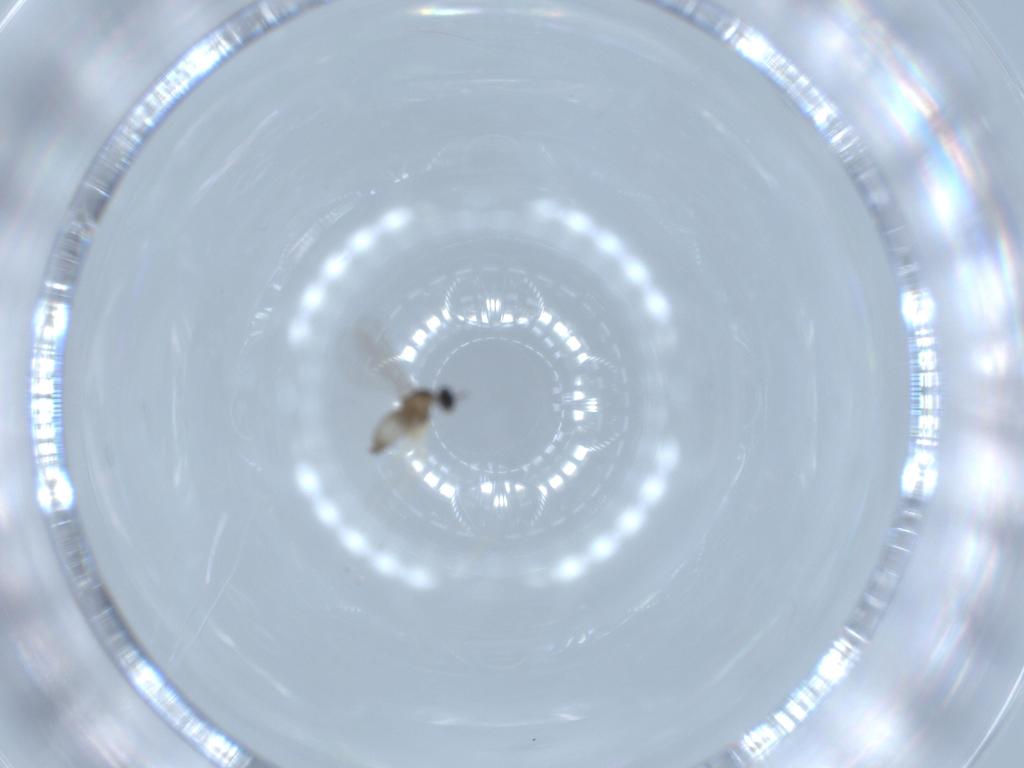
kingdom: Animalia
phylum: Arthropoda
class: Insecta
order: Diptera
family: Cecidomyiidae
